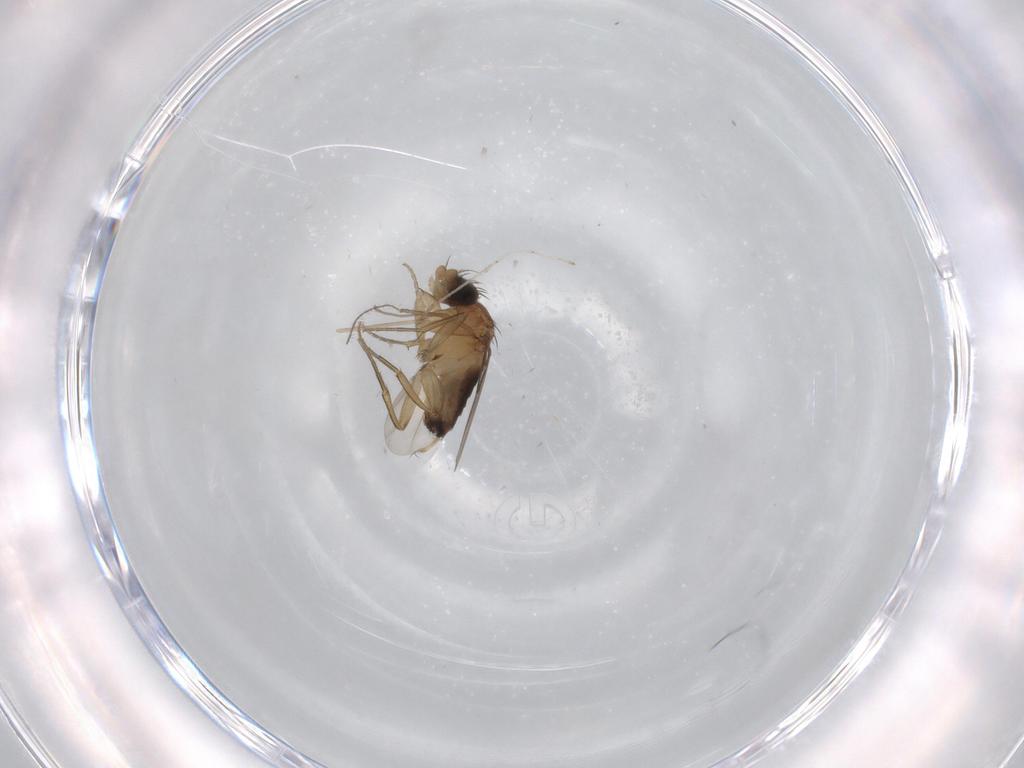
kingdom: Animalia
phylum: Arthropoda
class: Insecta
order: Diptera
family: Phoridae
